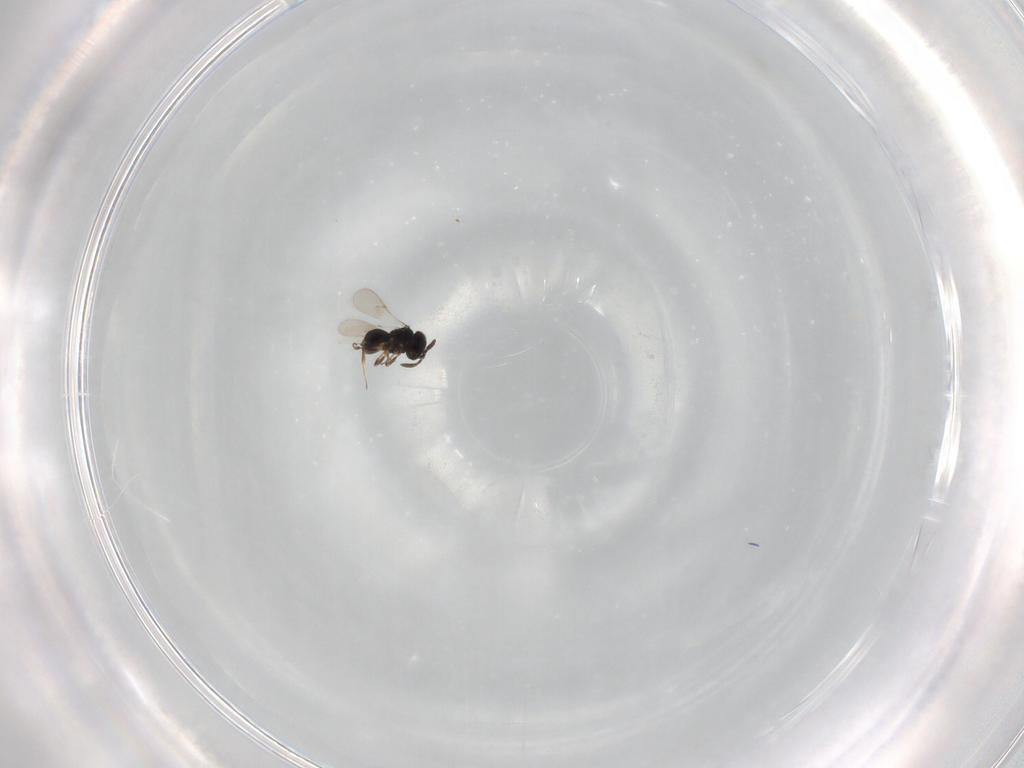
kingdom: Animalia
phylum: Arthropoda
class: Insecta
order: Hymenoptera
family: Scelionidae
